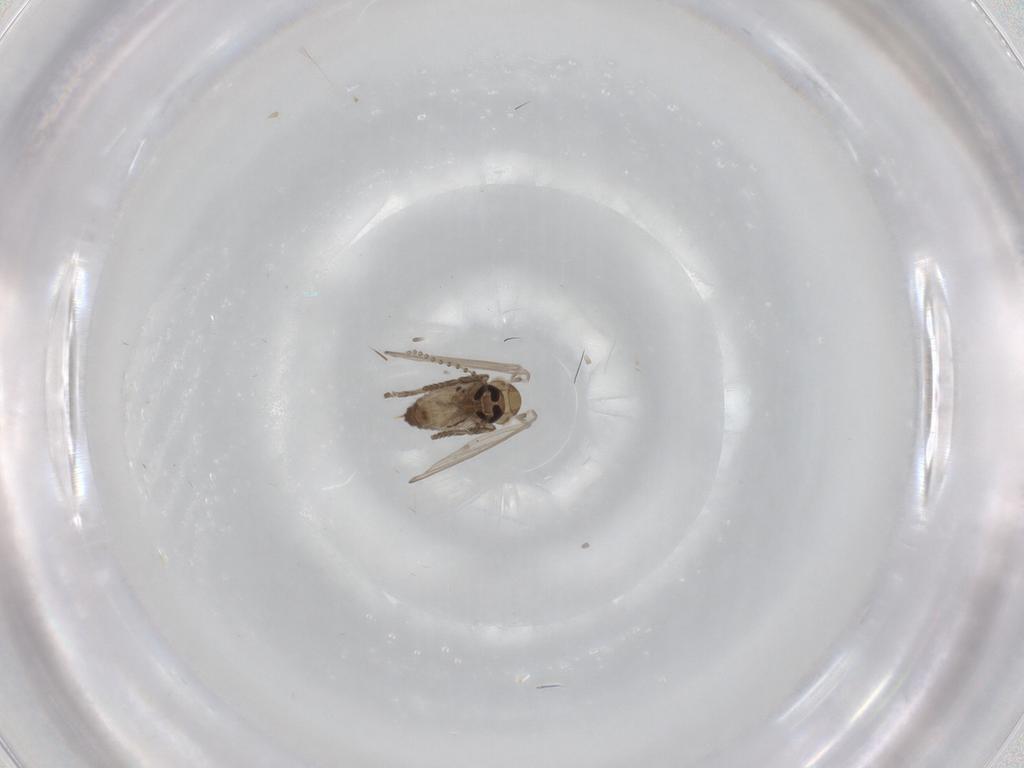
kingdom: Animalia
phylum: Arthropoda
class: Insecta
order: Diptera
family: Psychodidae
